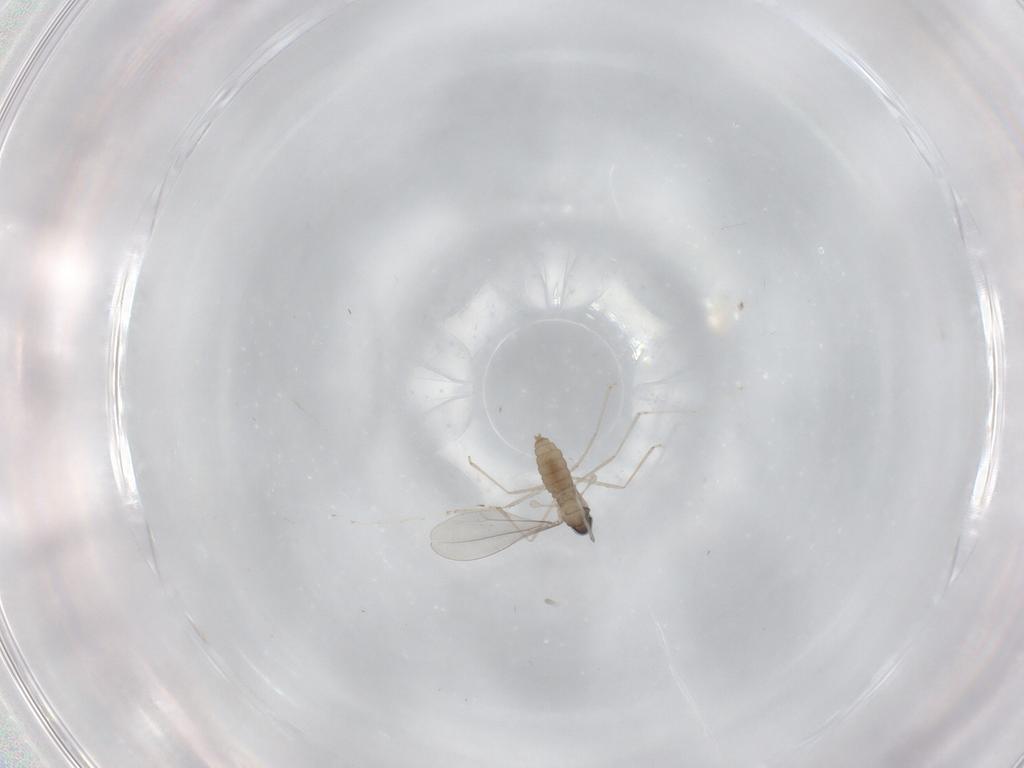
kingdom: Animalia
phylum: Arthropoda
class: Insecta
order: Diptera
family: Cecidomyiidae
